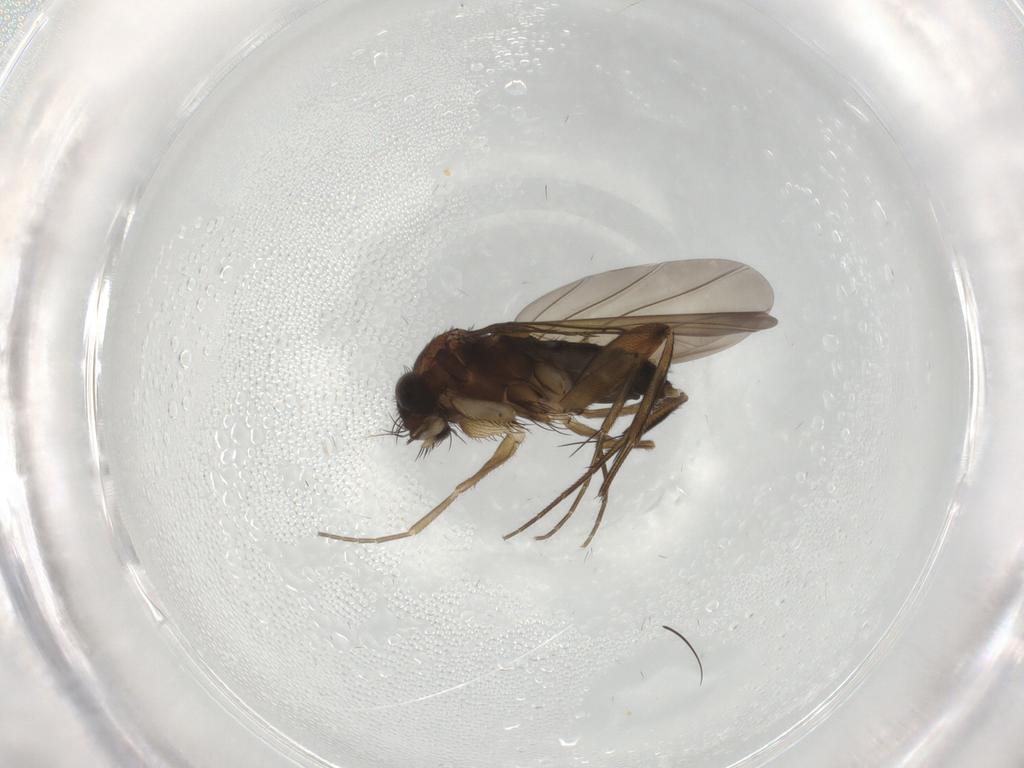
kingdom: Animalia
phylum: Arthropoda
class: Insecta
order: Diptera
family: Phoridae
